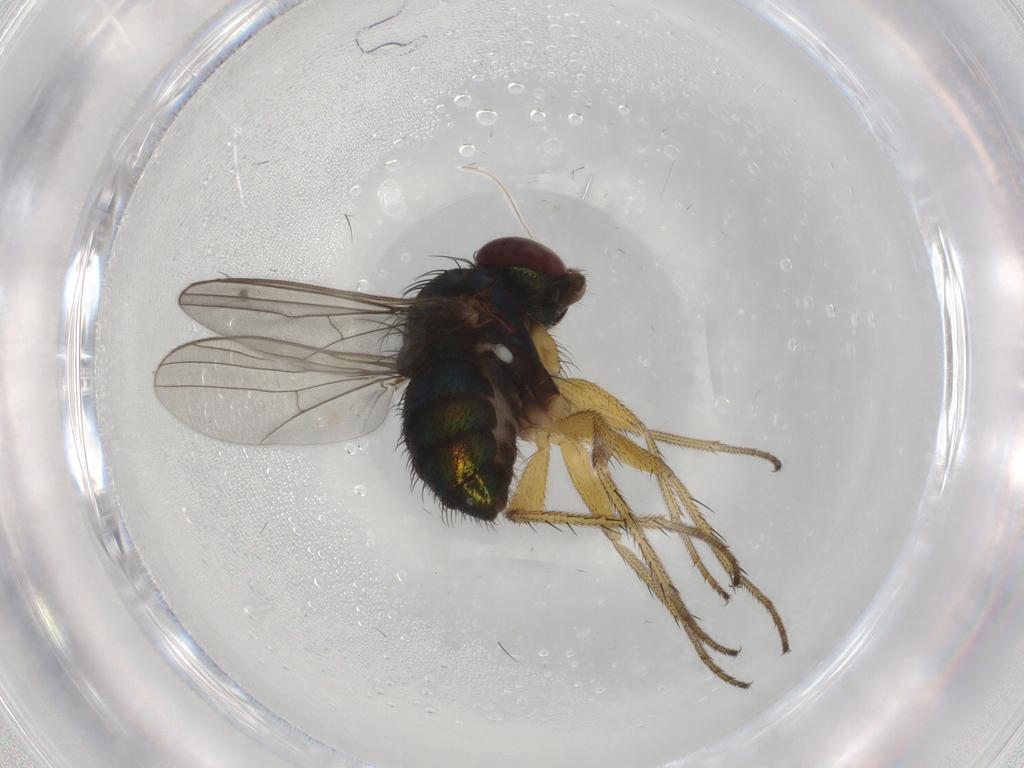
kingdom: Animalia
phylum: Arthropoda
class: Insecta
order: Diptera
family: Dolichopodidae
